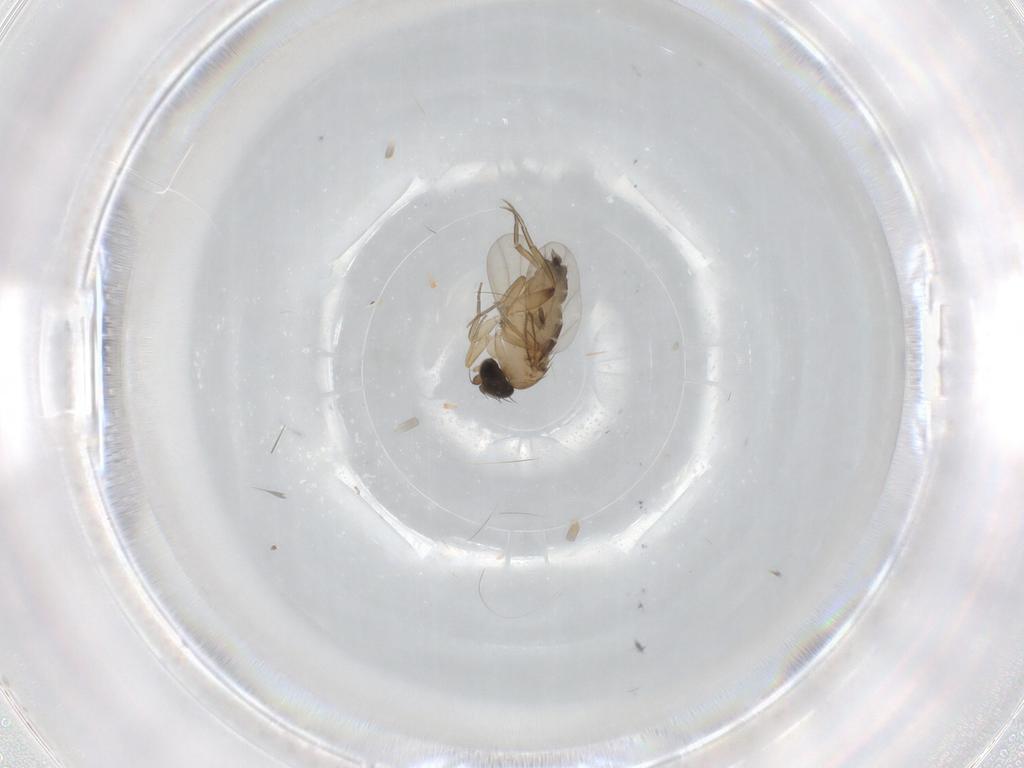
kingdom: Animalia
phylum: Arthropoda
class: Insecta
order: Diptera
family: Phoridae
